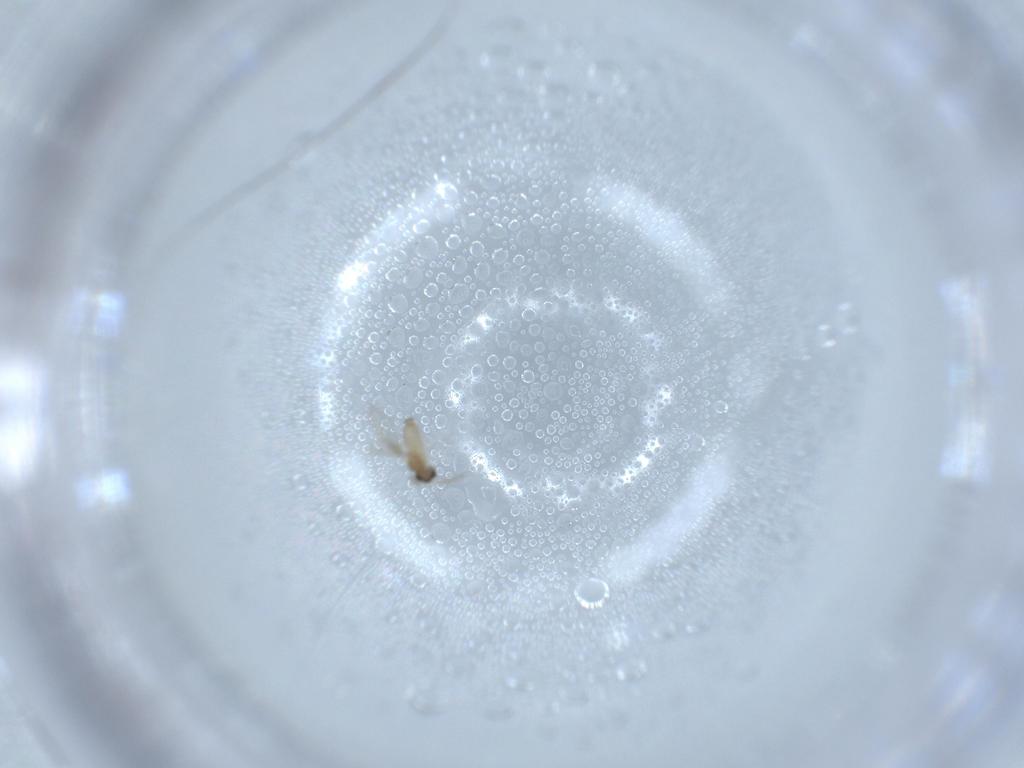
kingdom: Animalia
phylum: Arthropoda
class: Insecta
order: Diptera
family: Cecidomyiidae
